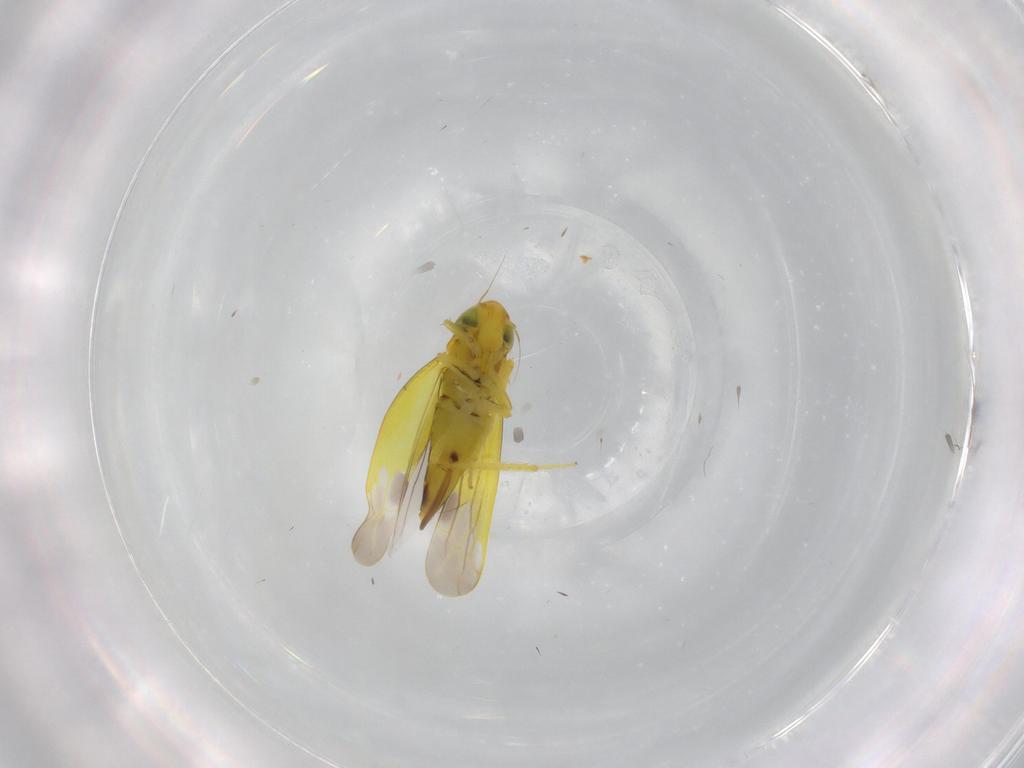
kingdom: Animalia
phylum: Arthropoda
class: Insecta
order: Hemiptera
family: Cicadellidae
